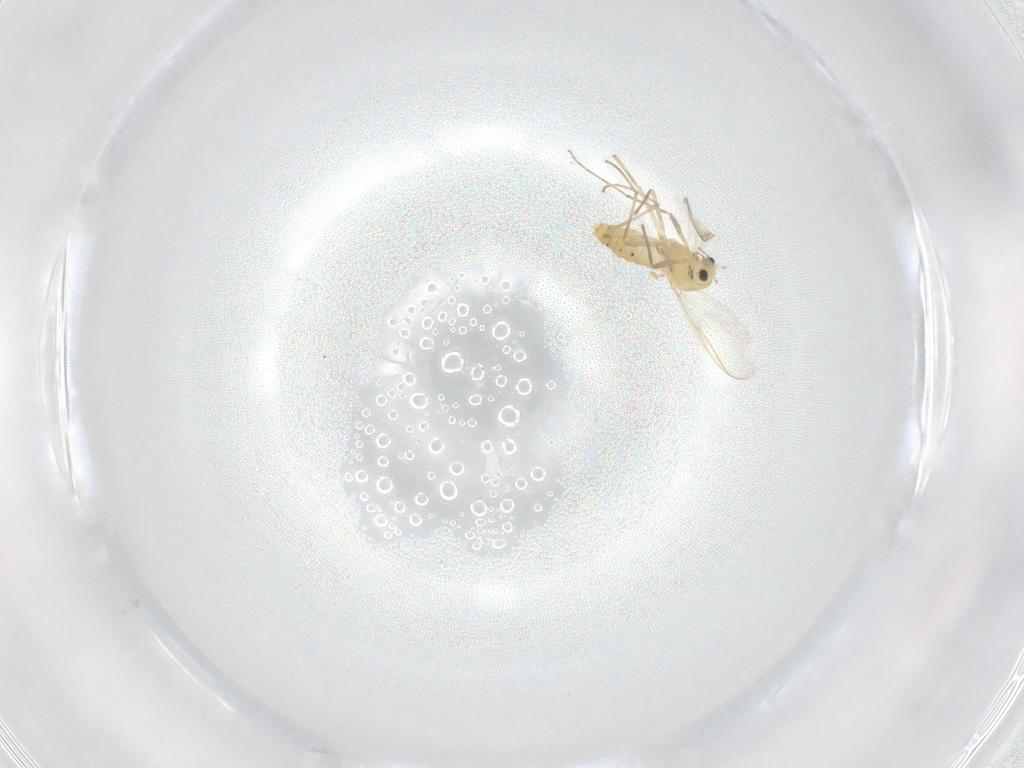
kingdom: Animalia
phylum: Arthropoda
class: Insecta
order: Diptera
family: Chironomidae
